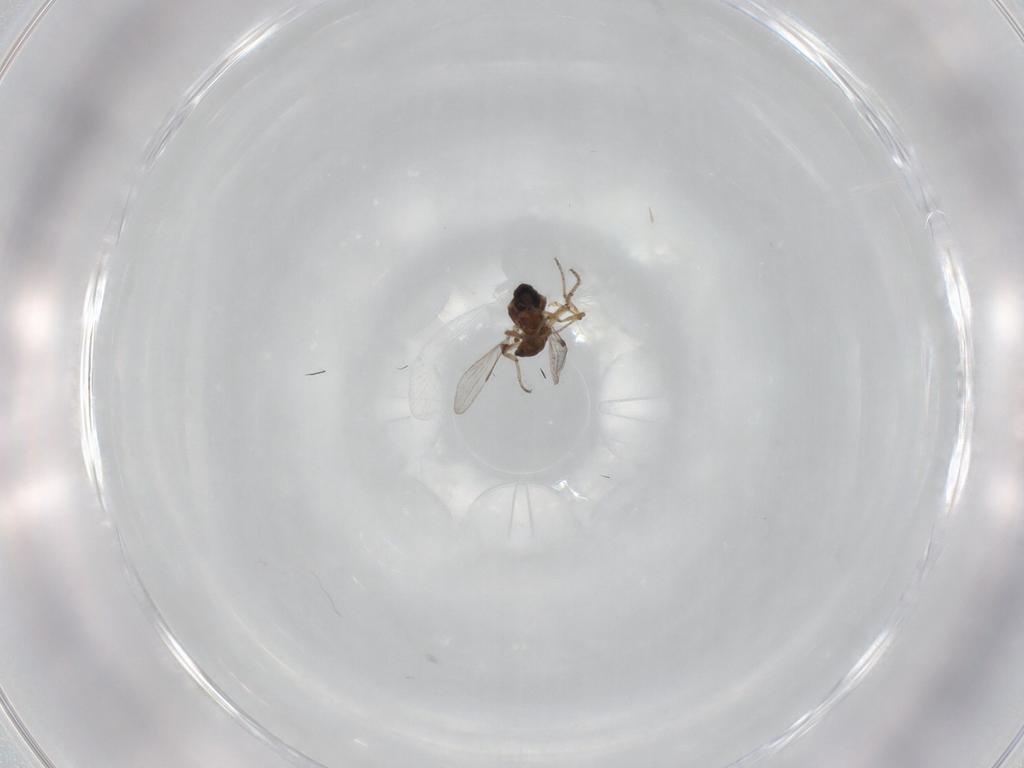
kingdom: Animalia
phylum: Arthropoda
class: Insecta
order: Diptera
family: Ceratopogonidae
